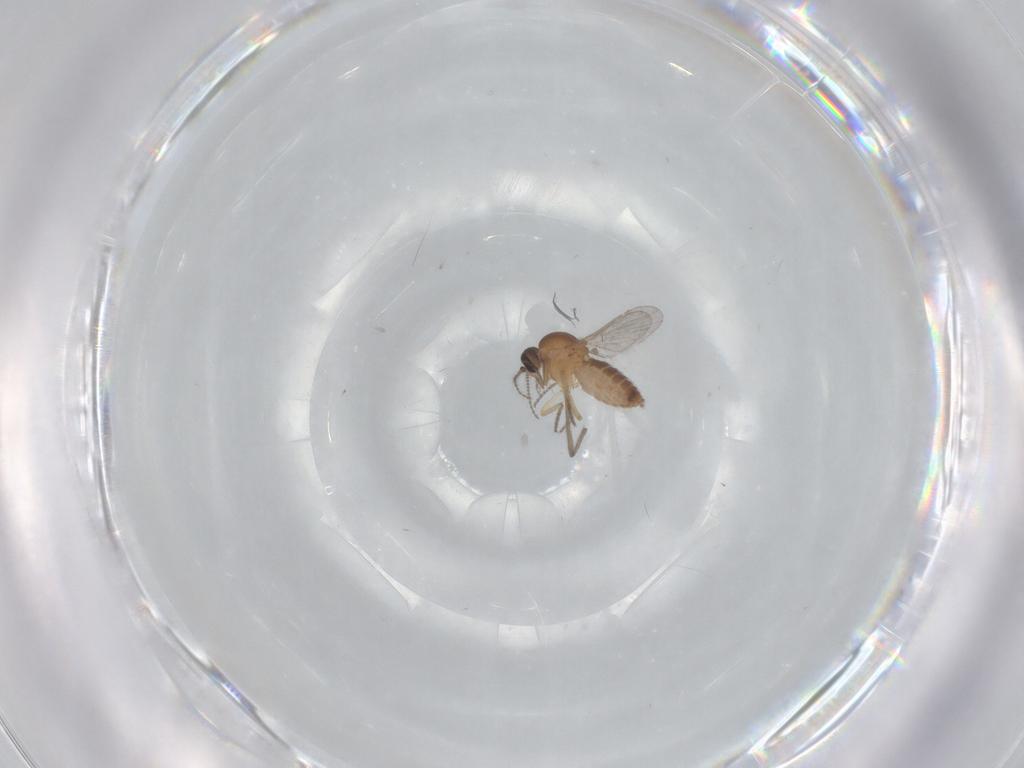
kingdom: Animalia
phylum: Arthropoda
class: Insecta
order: Diptera
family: Ceratopogonidae
